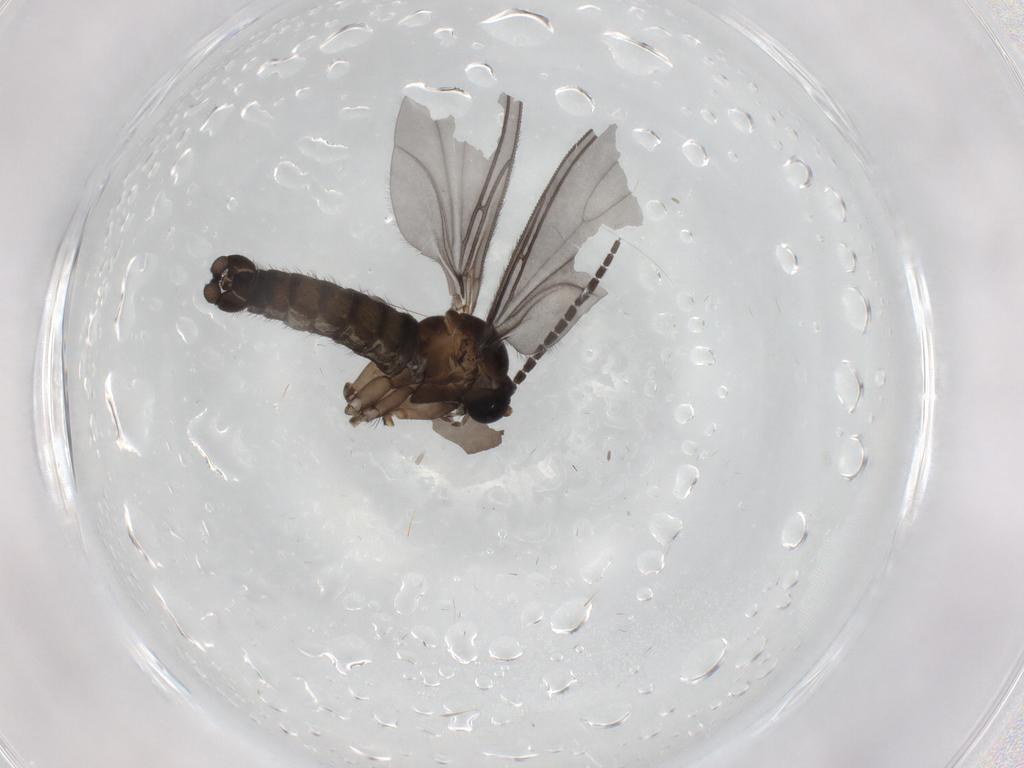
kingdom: Animalia
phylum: Arthropoda
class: Insecta
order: Diptera
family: Sciaridae
